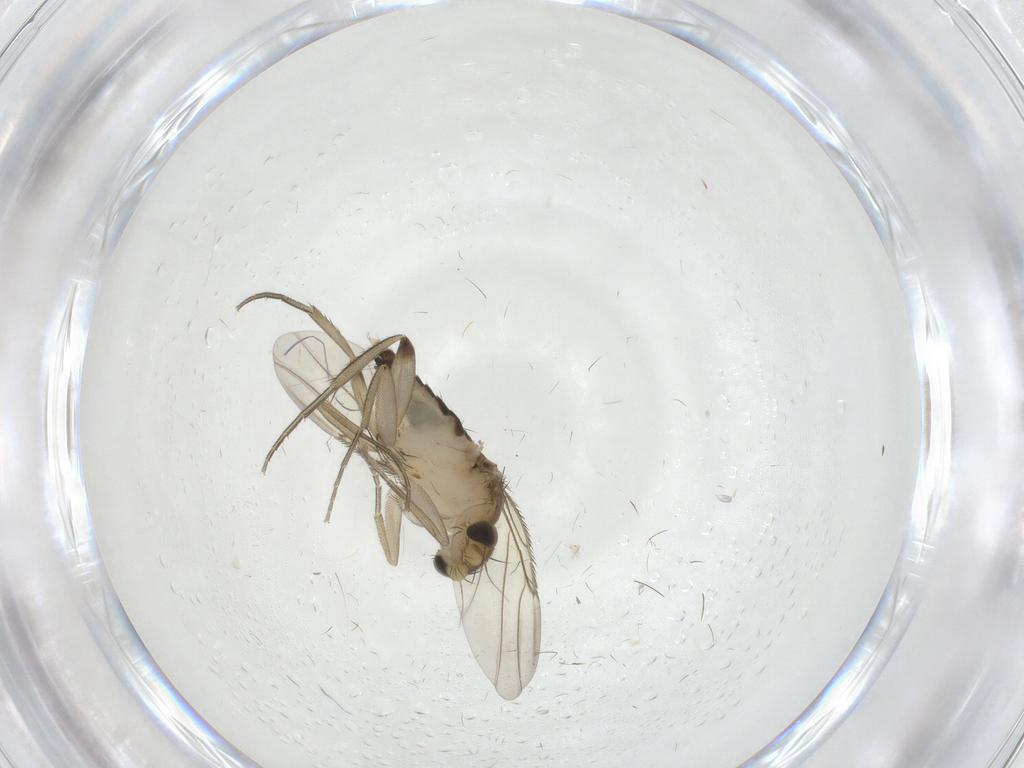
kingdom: Animalia
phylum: Arthropoda
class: Insecta
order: Diptera
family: Phoridae
